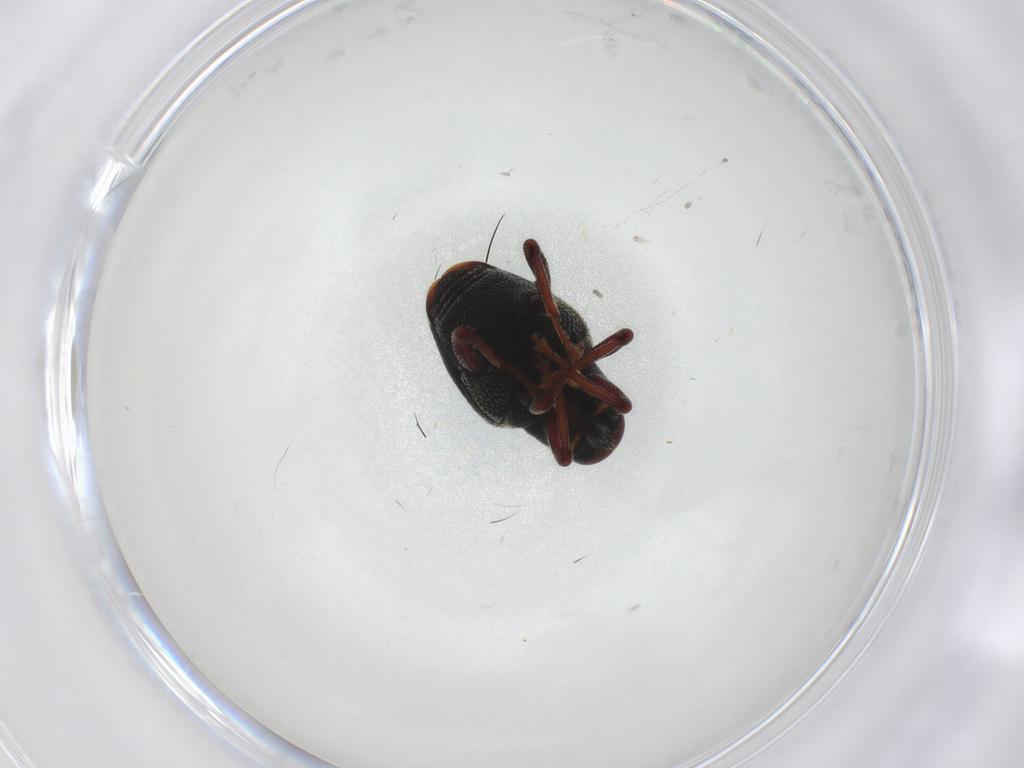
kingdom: Animalia
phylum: Arthropoda
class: Insecta
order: Coleoptera
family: Curculionidae
